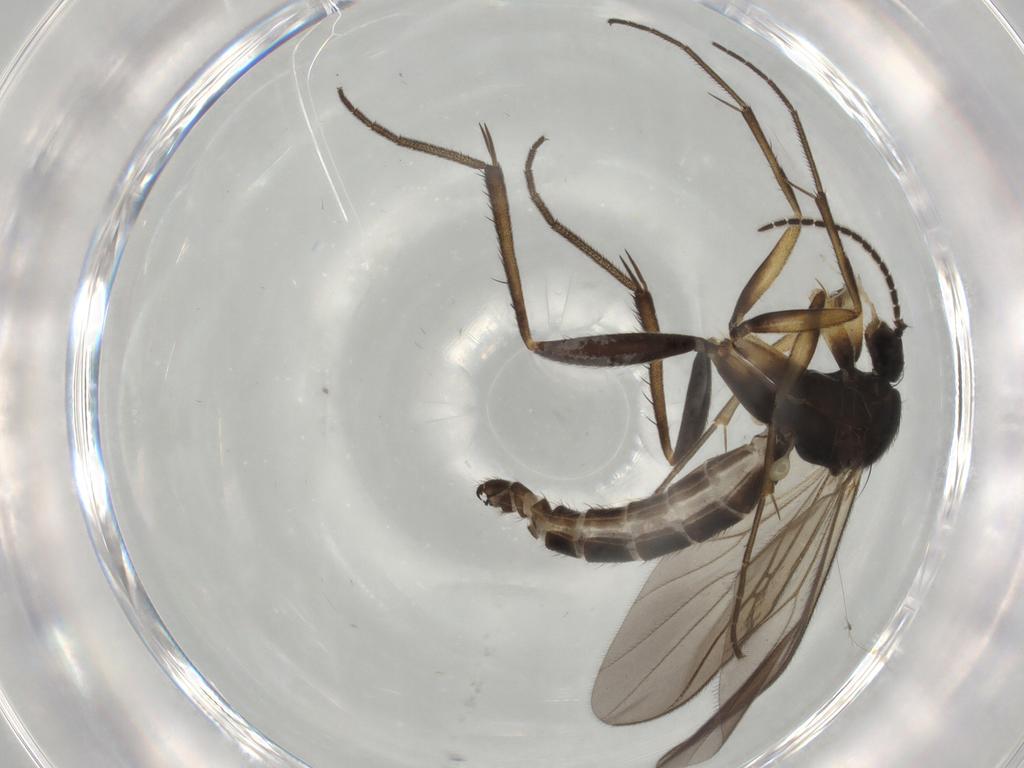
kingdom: Animalia
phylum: Arthropoda
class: Insecta
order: Diptera
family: Mycetophilidae
